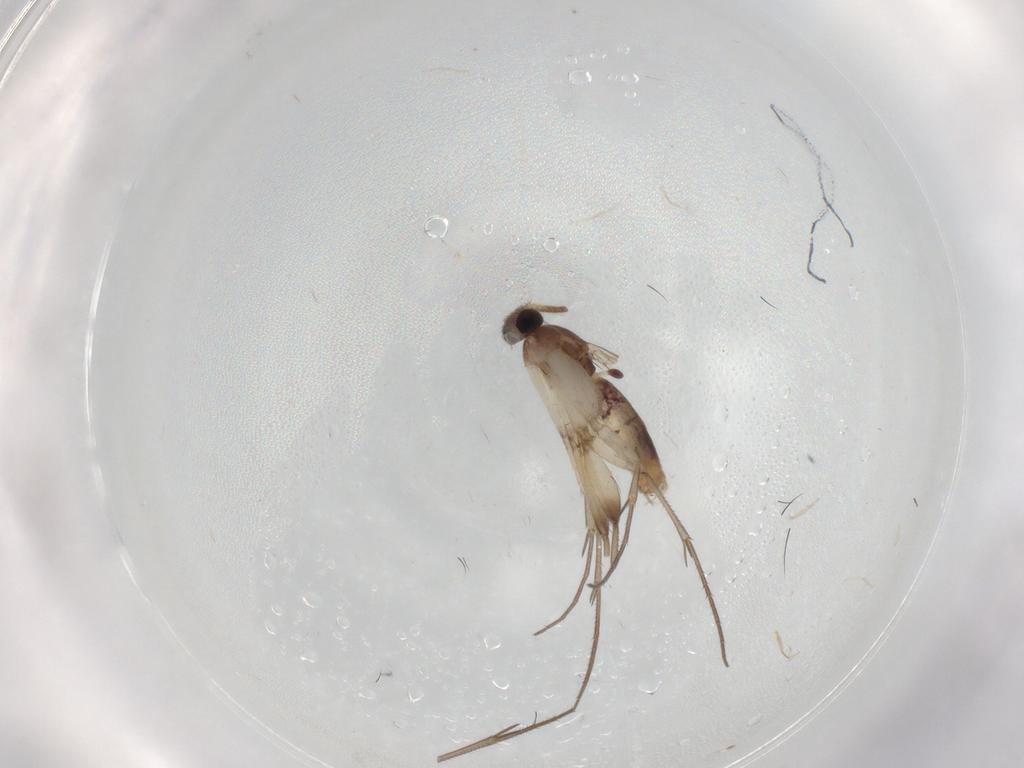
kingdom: Animalia
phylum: Arthropoda
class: Insecta
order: Diptera
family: Mycetophilidae
